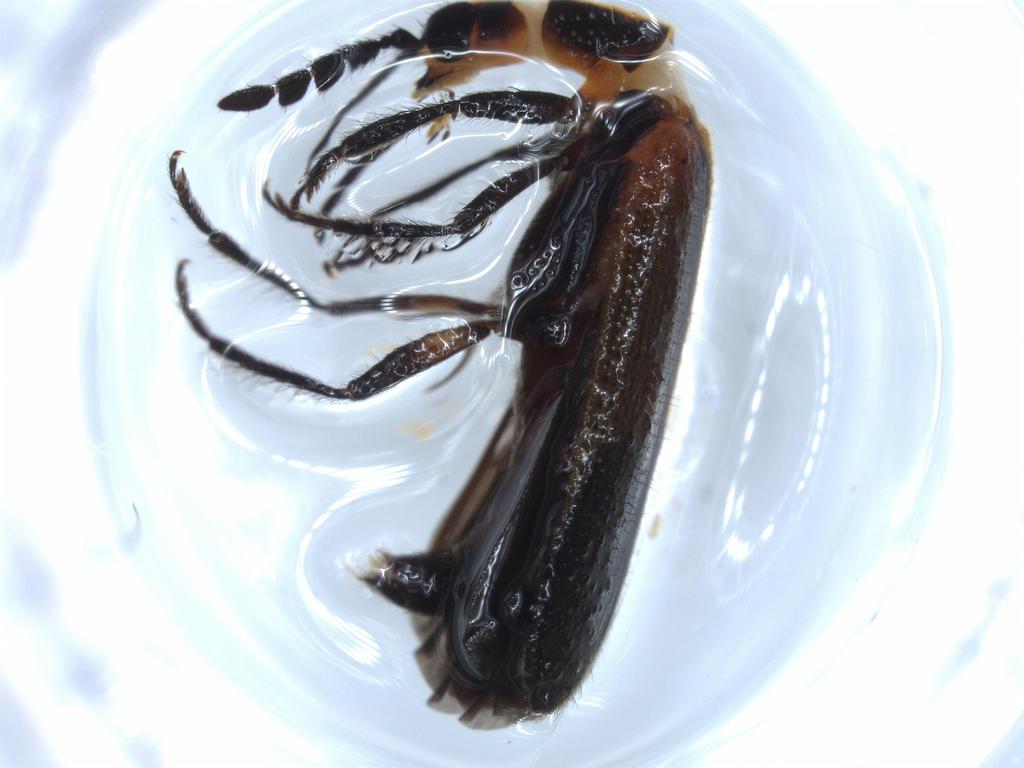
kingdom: Animalia
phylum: Arthropoda
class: Insecta
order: Coleoptera
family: Cleridae
